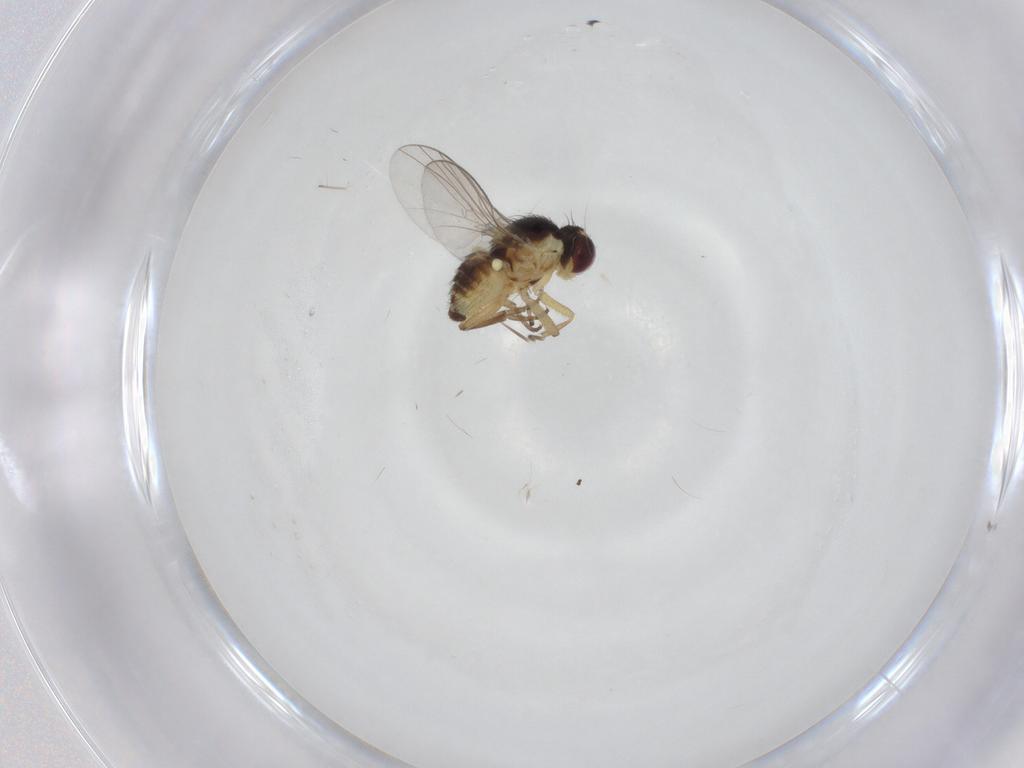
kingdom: Animalia
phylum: Arthropoda
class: Insecta
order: Diptera
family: Agromyzidae
